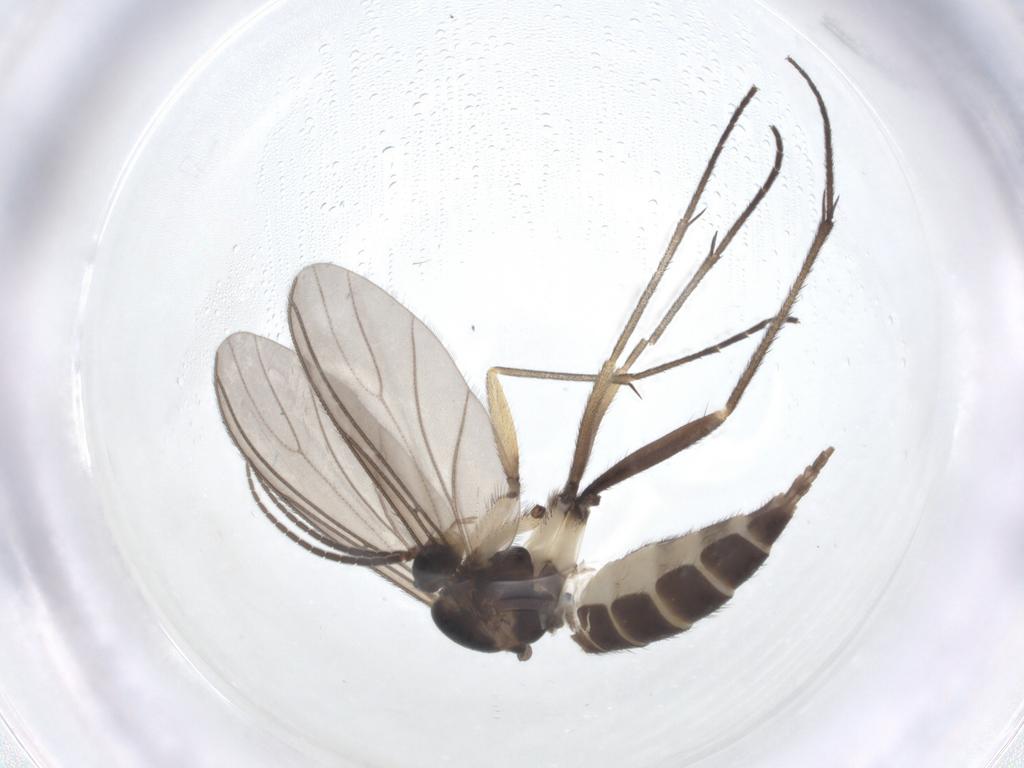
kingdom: Animalia
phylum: Arthropoda
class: Insecta
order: Diptera
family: Sciaridae
